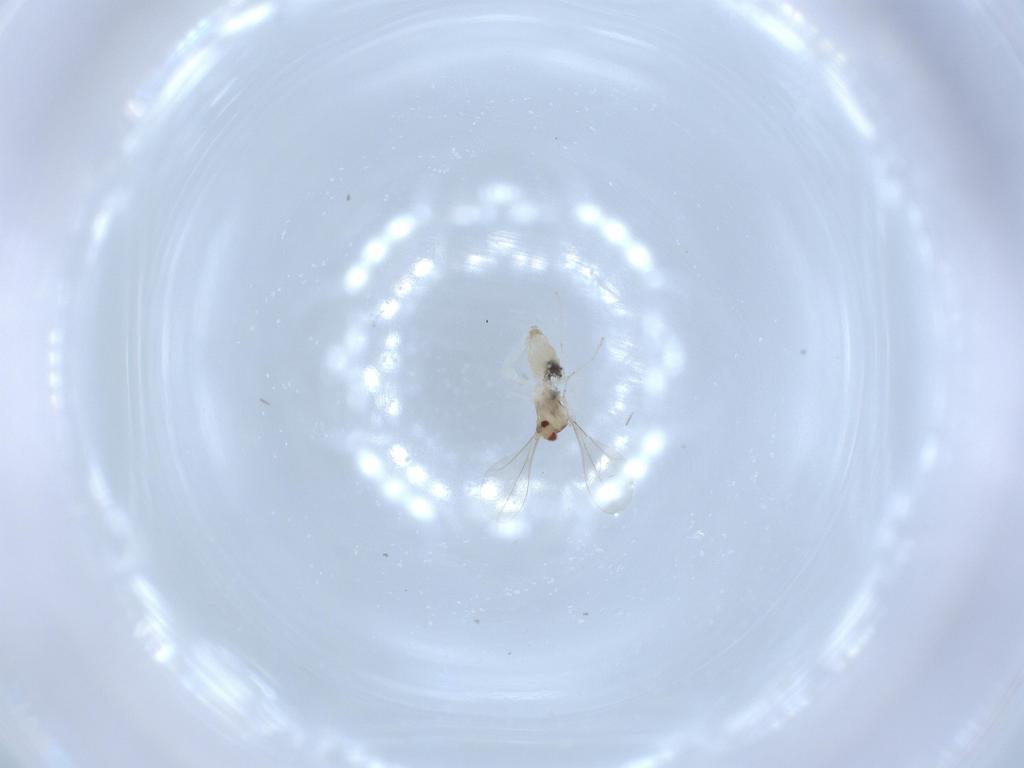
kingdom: Animalia
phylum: Arthropoda
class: Insecta
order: Diptera
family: Cecidomyiidae
